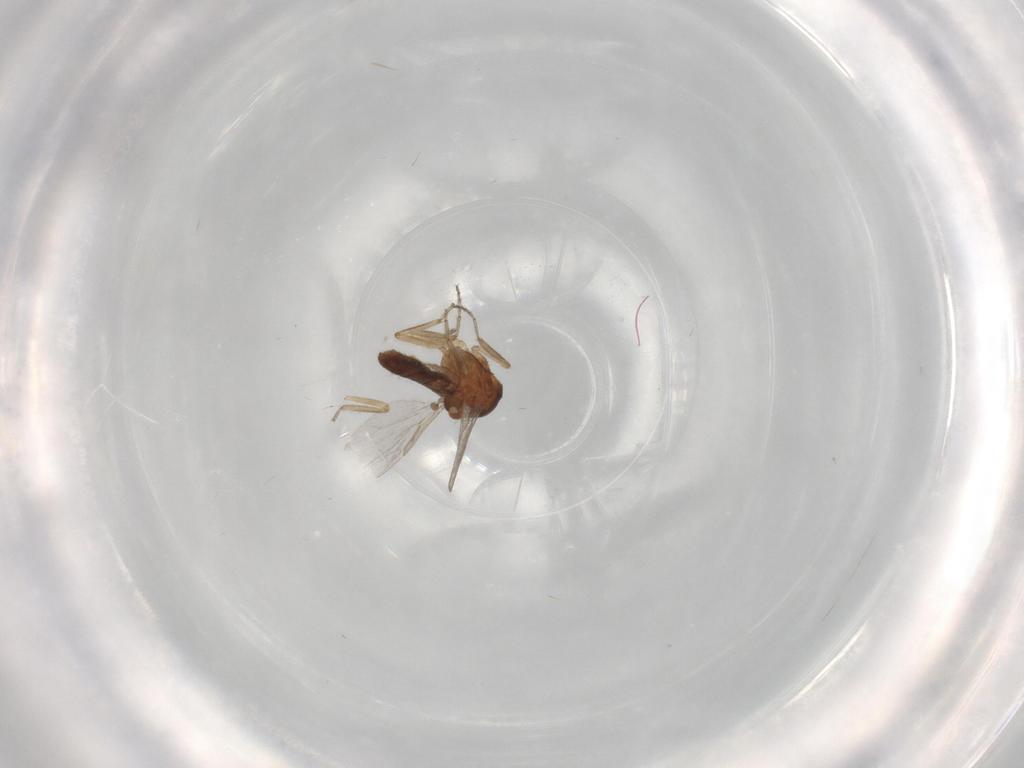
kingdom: Animalia
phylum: Arthropoda
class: Insecta
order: Diptera
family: Ceratopogonidae
